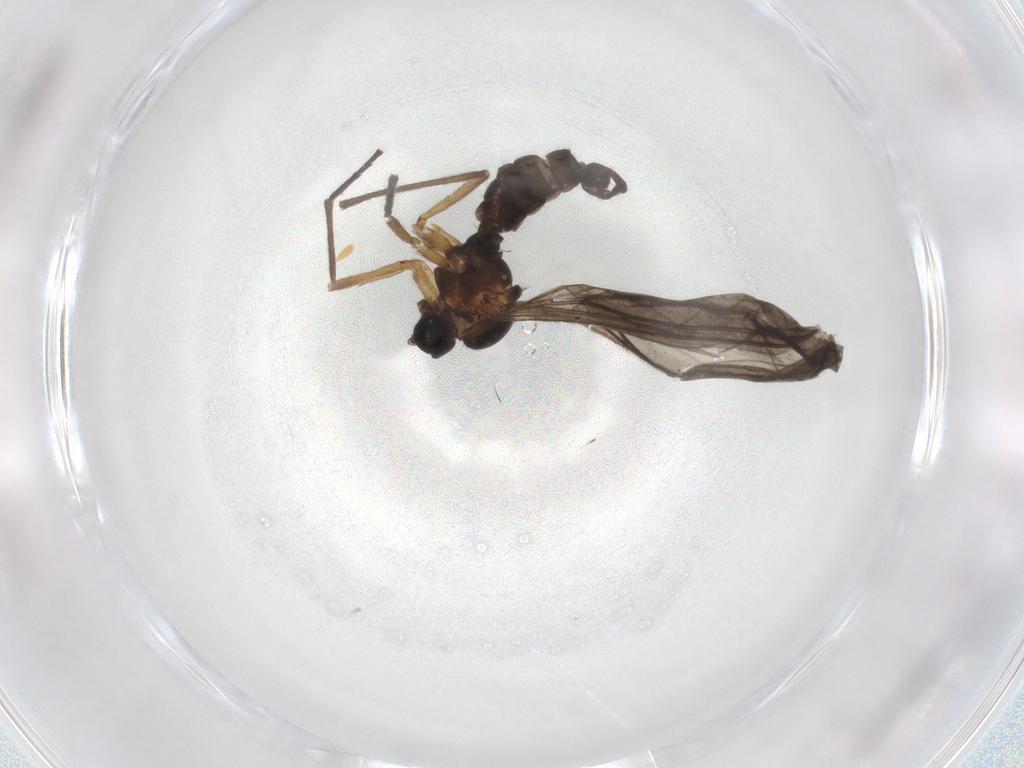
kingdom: Animalia
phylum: Arthropoda
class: Insecta
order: Diptera
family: Sciaridae
